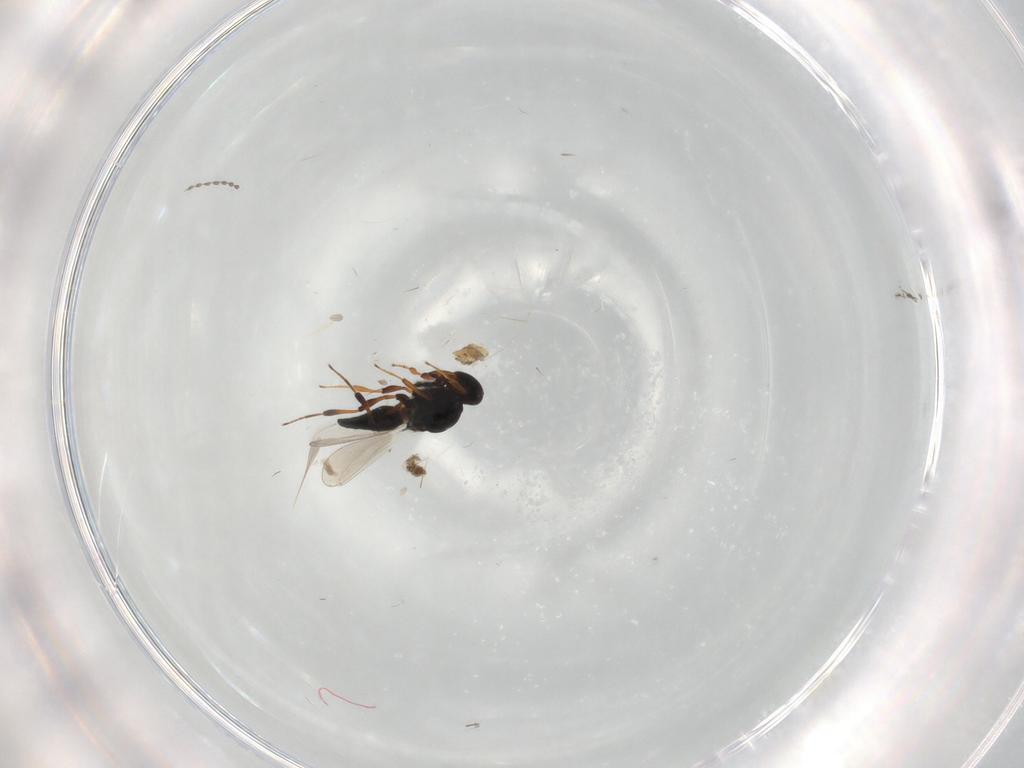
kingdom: Animalia
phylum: Arthropoda
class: Insecta
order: Hymenoptera
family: Platygastridae
